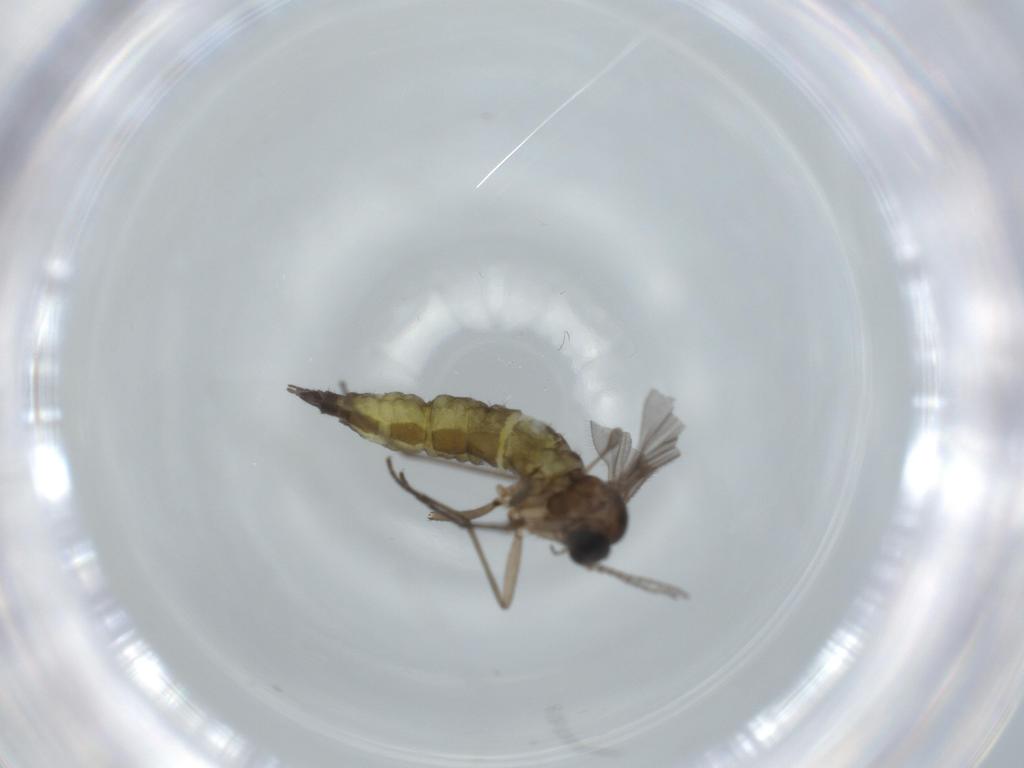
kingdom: Animalia
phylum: Arthropoda
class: Insecta
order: Diptera
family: Sciaridae
